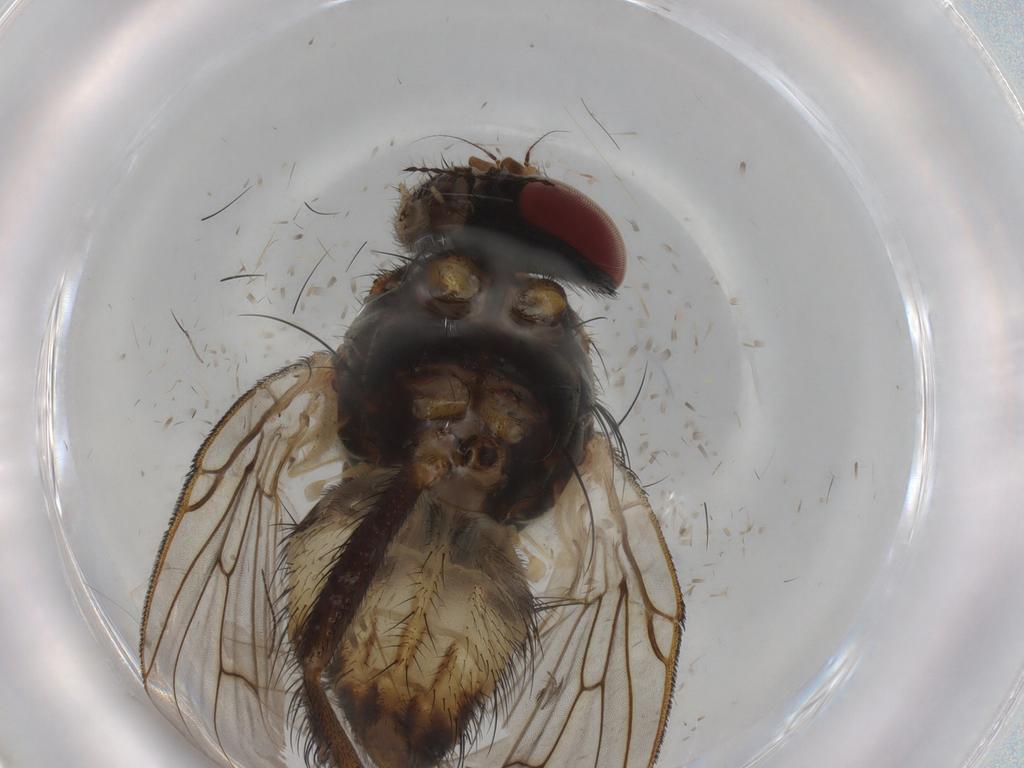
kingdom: Animalia
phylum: Arthropoda
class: Insecta
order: Diptera
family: Muscidae
